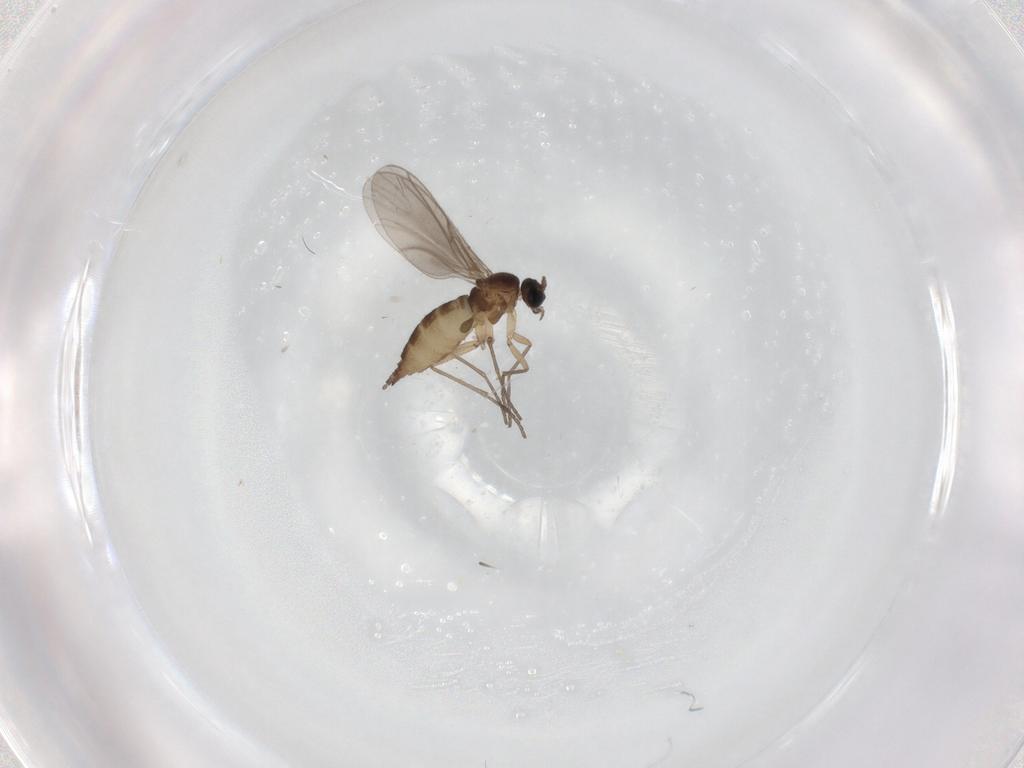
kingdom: Animalia
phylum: Arthropoda
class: Insecta
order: Diptera
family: Sciaridae
